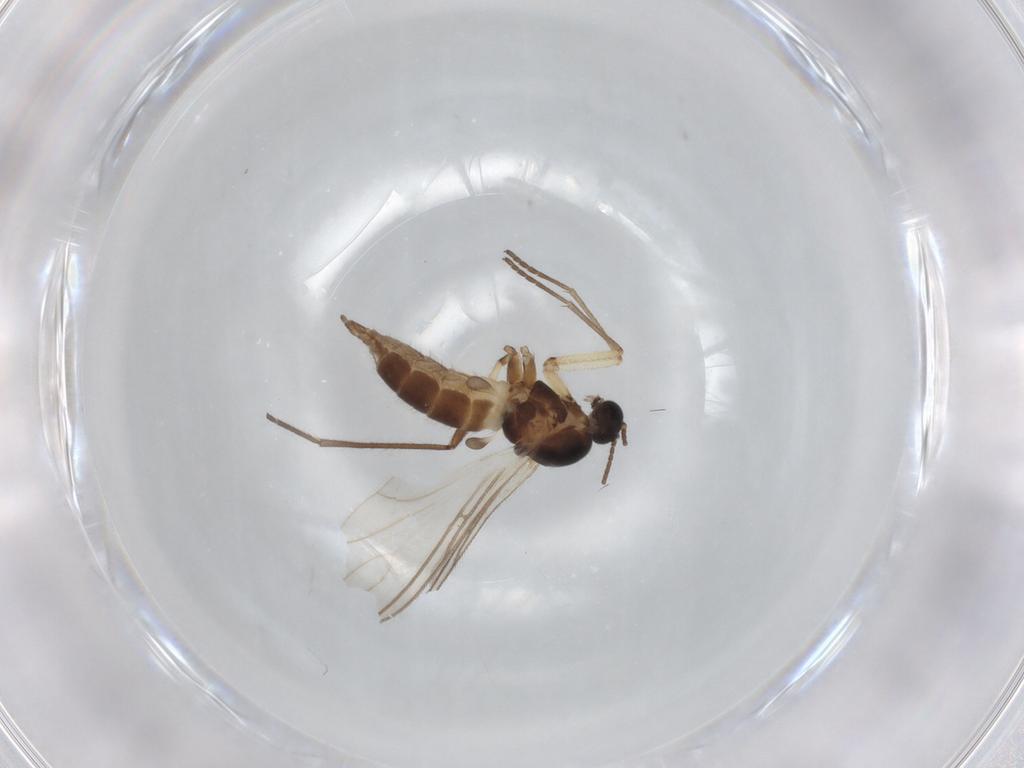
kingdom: Animalia
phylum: Arthropoda
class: Insecta
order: Diptera
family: Sciaridae
